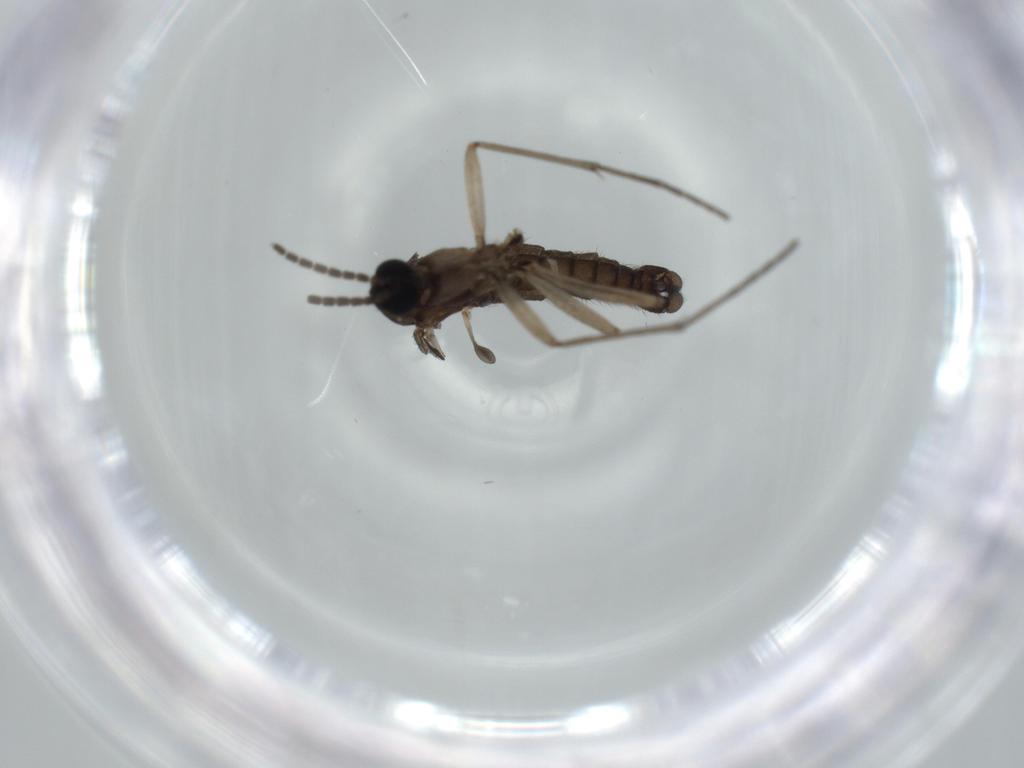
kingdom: Animalia
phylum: Arthropoda
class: Insecta
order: Diptera
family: Sciaridae
